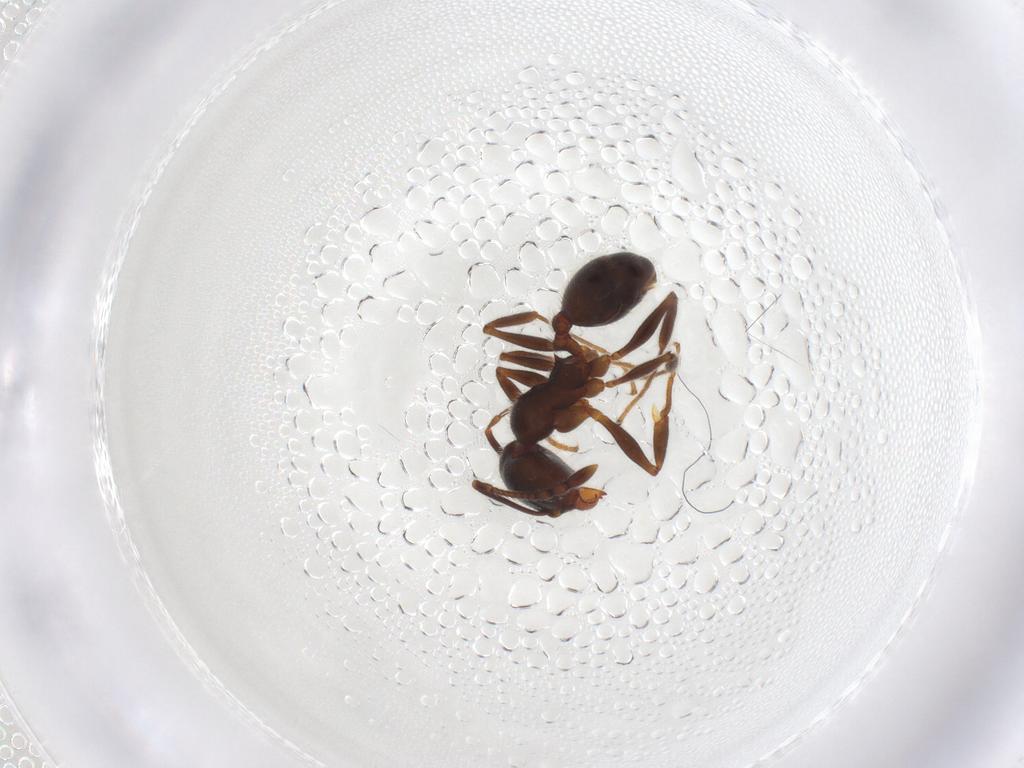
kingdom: Animalia
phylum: Arthropoda
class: Insecta
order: Hymenoptera
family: Formicidae
